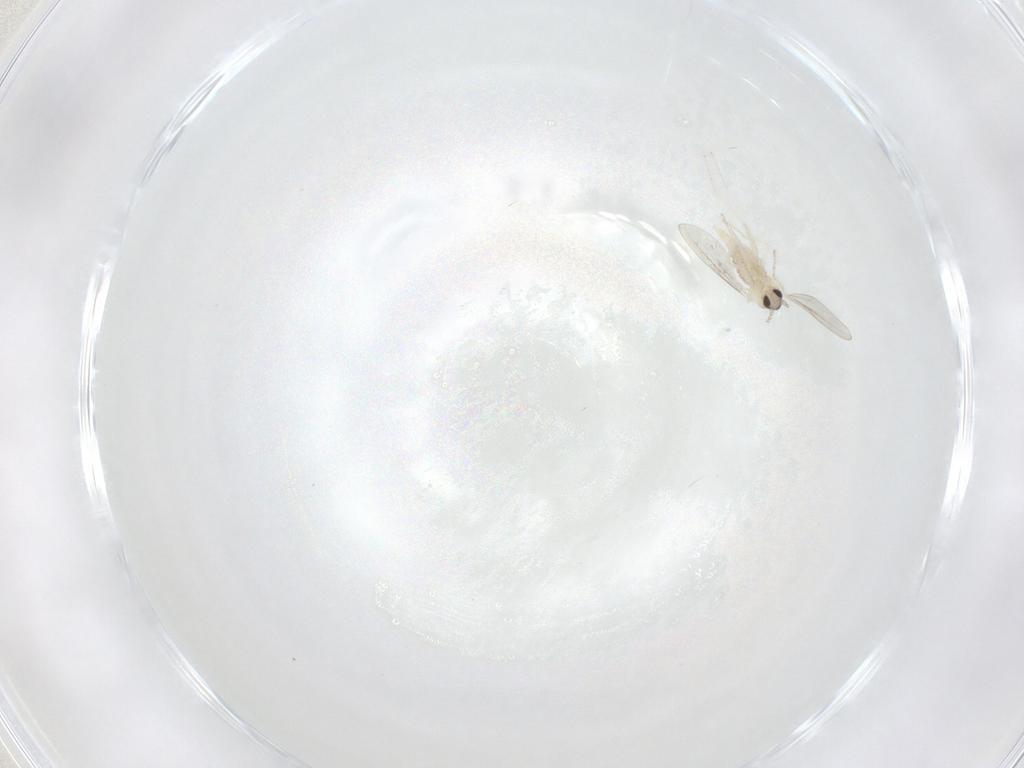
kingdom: Animalia
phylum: Arthropoda
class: Insecta
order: Diptera
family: Cecidomyiidae
